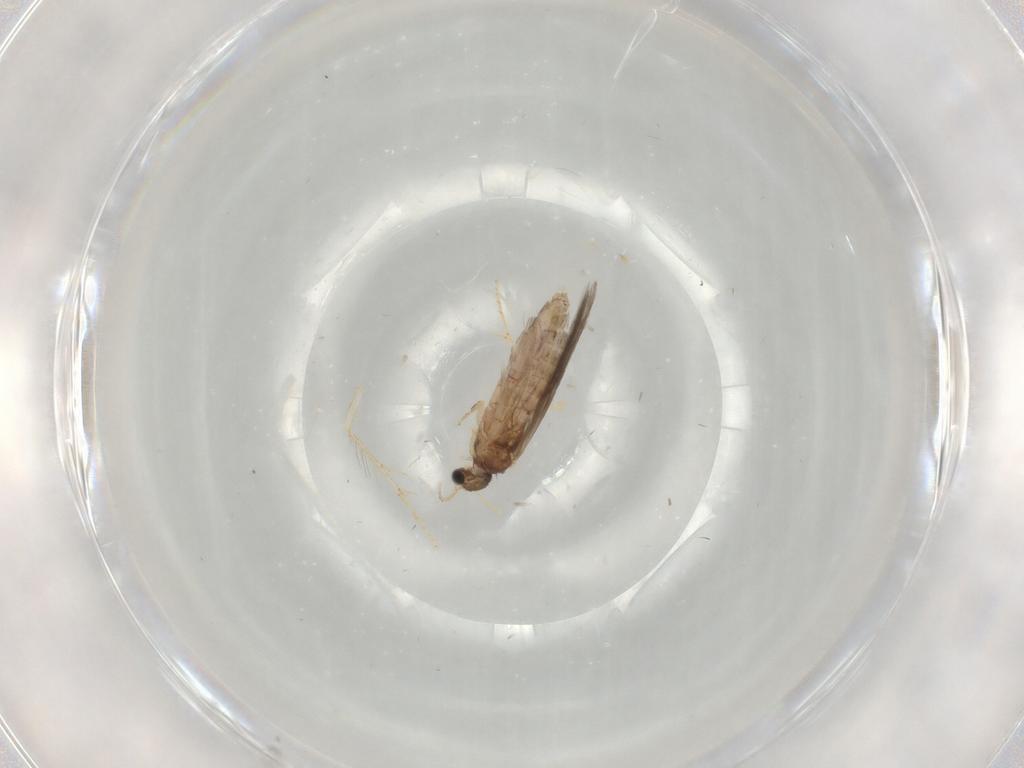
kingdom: Animalia
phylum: Arthropoda
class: Insecta
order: Trichoptera
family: Hydroptilidae
